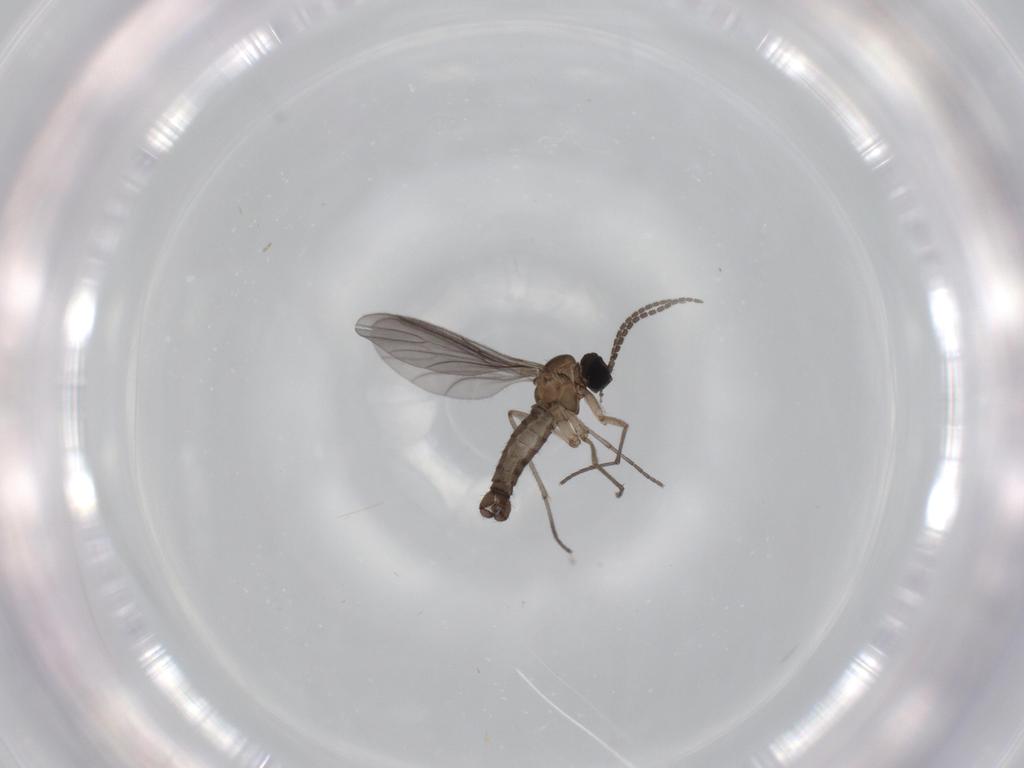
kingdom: Animalia
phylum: Arthropoda
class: Insecta
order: Diptera
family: Sciaridae
